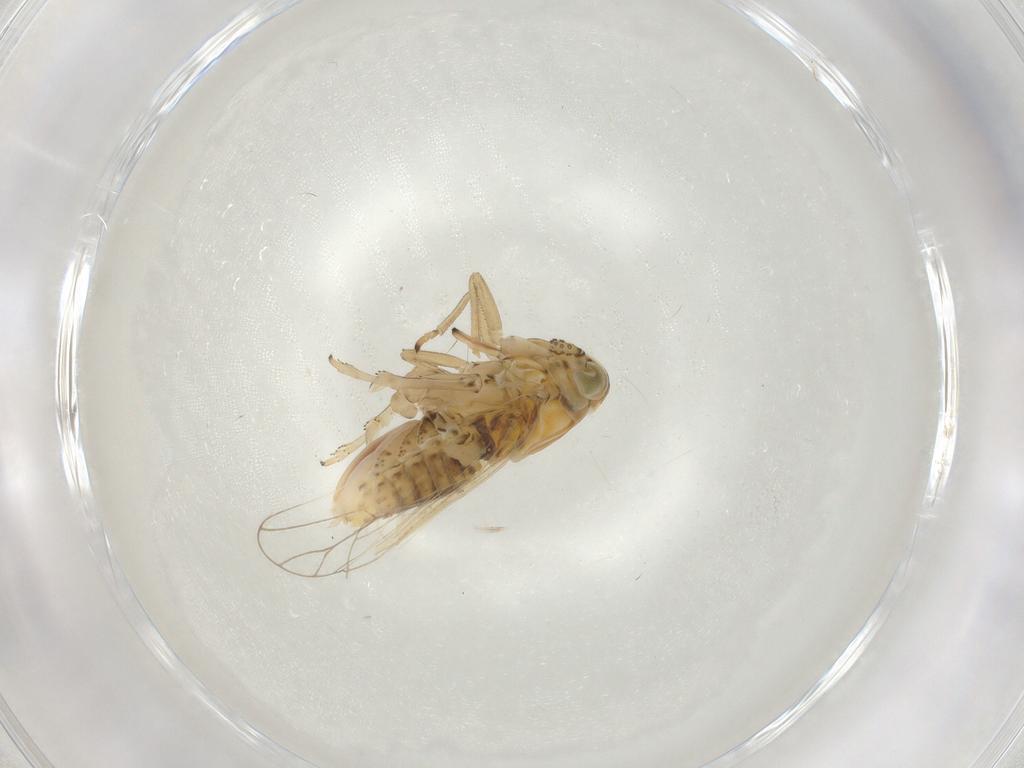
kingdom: Animalia
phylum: Arthropoda
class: Insecta
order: Hemiptera
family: Delphacidae
